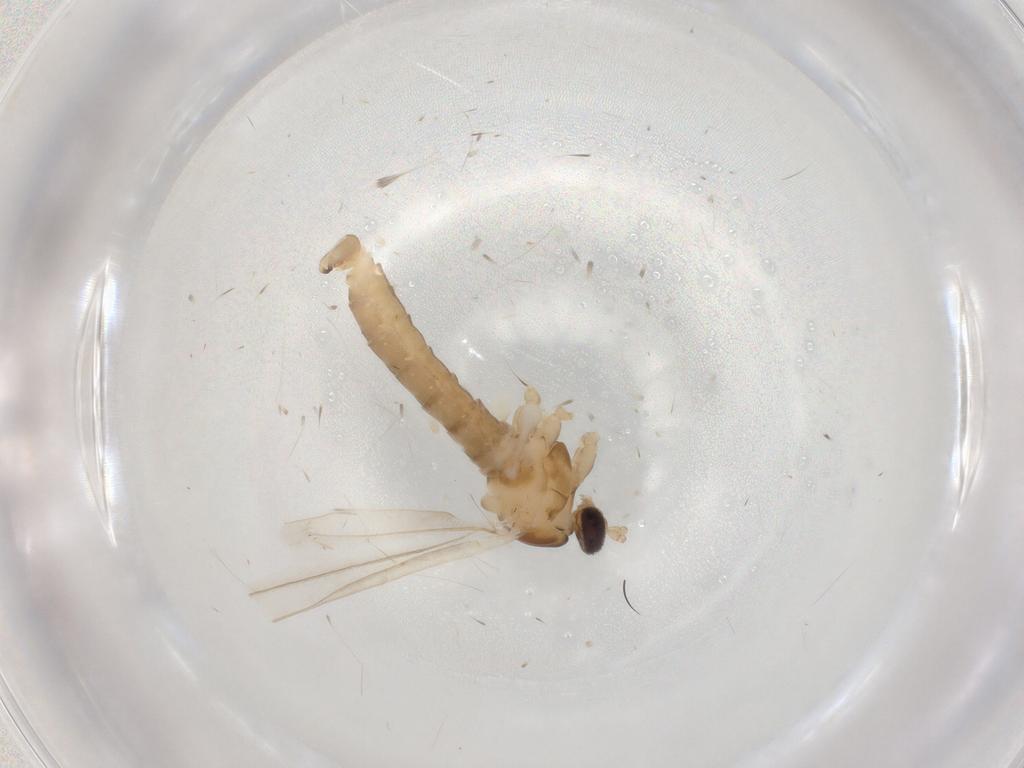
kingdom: Animalia
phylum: Arthropoda
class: Insecta
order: Diptera
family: Cecidomyiidae
